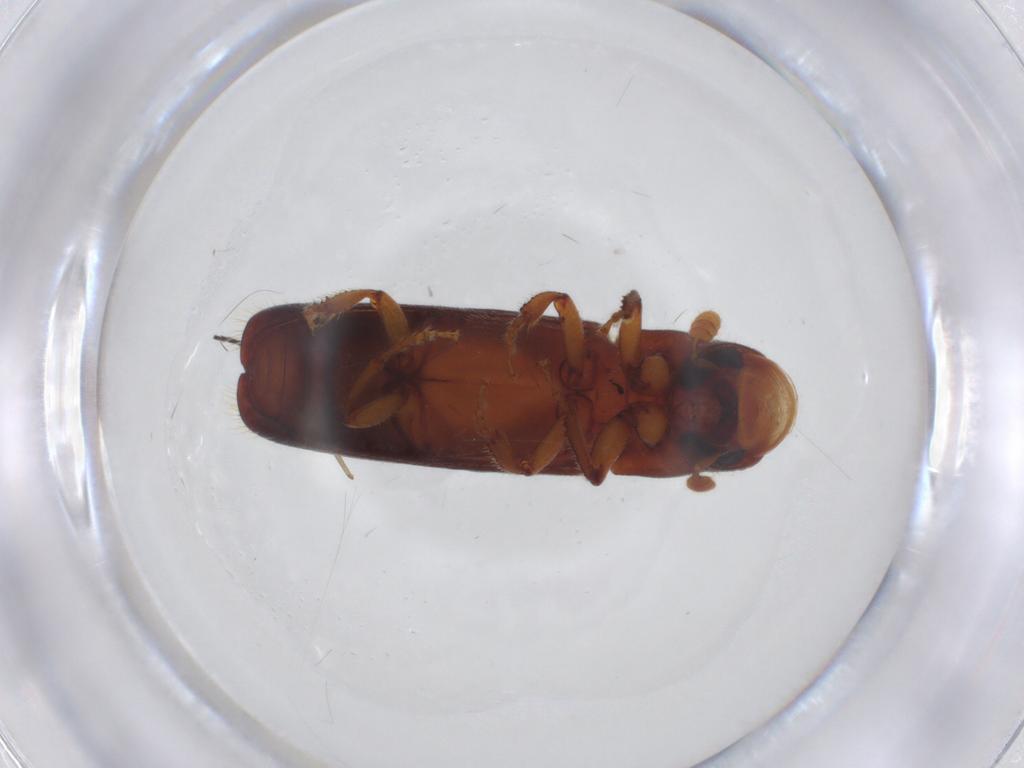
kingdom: Animalia
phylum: Arthropoda
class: Insecta
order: Coleoptera
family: Curculionidae
